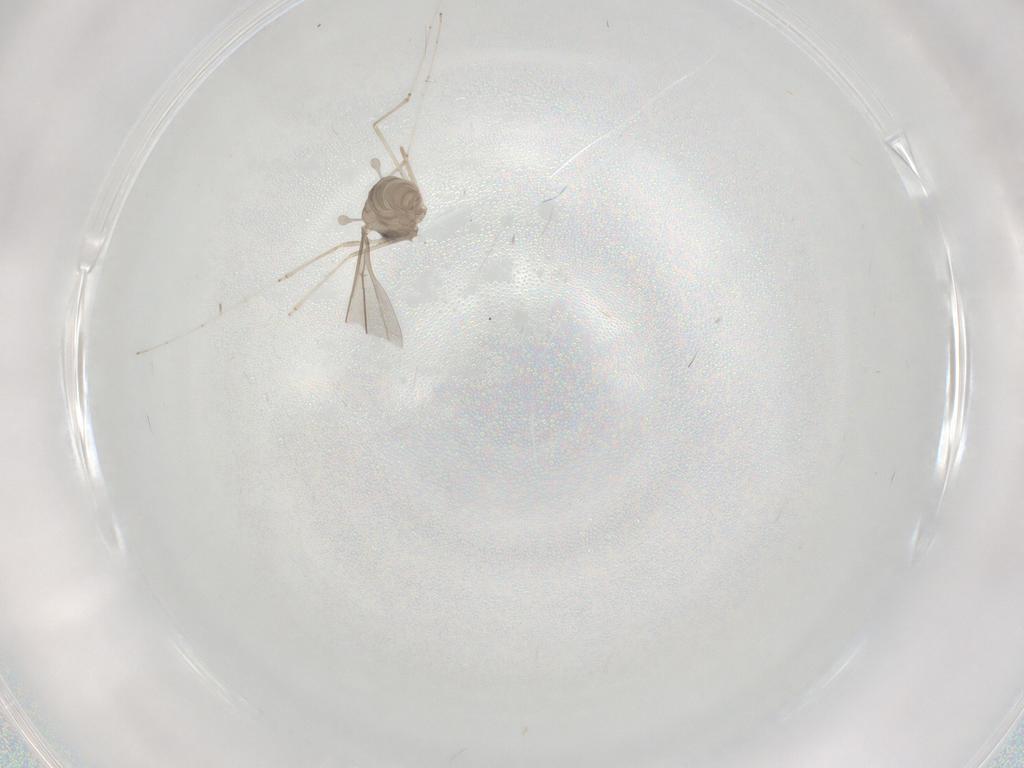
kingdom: Animalia
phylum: Arthropoda
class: Insecta
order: Diptera
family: Cecidomyiidae
